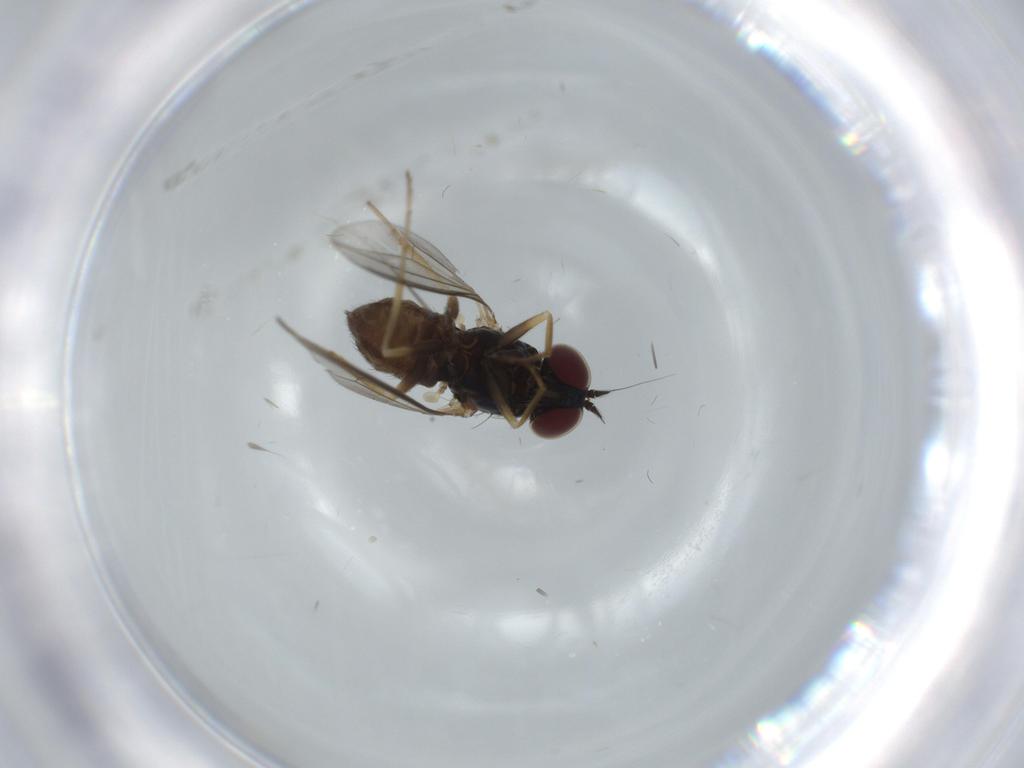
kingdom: Animalia
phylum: Arthropoda
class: Insecta
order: Diptera
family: Dolichopodidae
